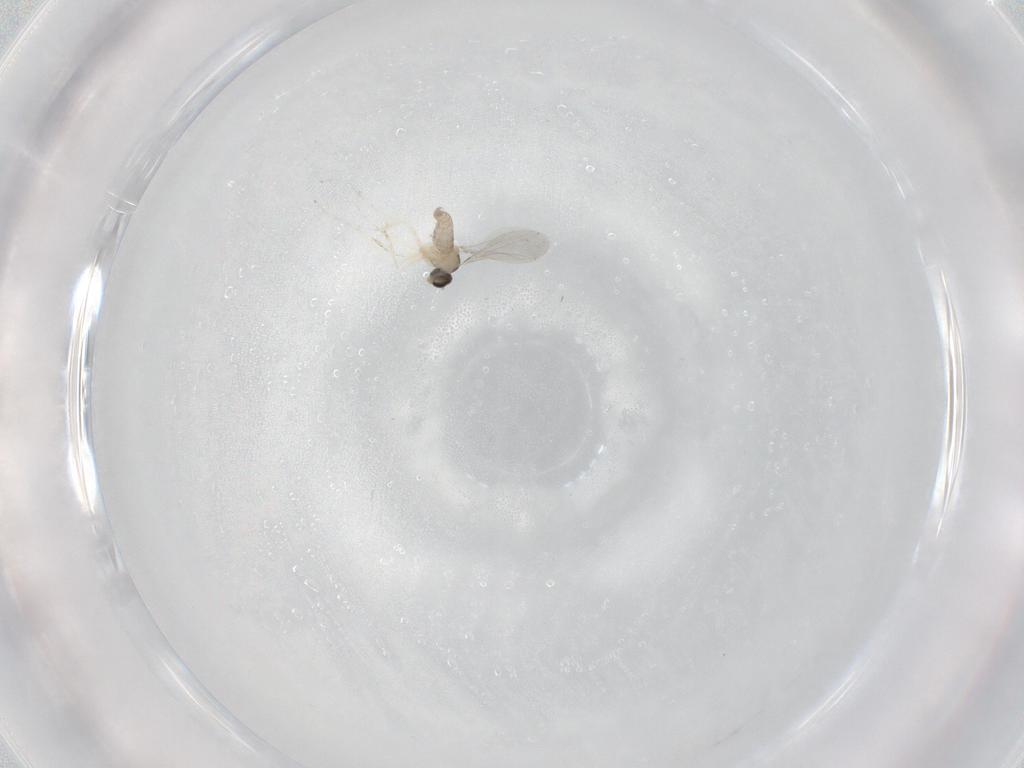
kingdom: Animalia
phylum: Arthropoda
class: Insecta
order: Diptera
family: Cecidomyiidae
